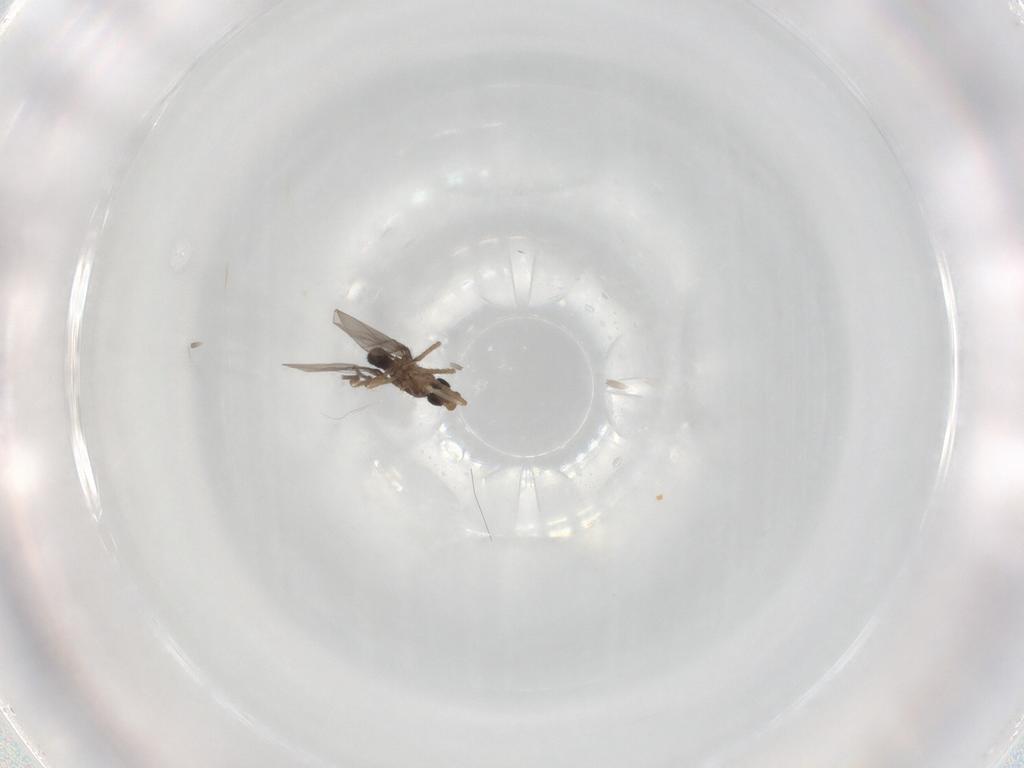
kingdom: Animalia
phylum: Arthropoda
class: Insecta
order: Diptera
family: Phoridae
